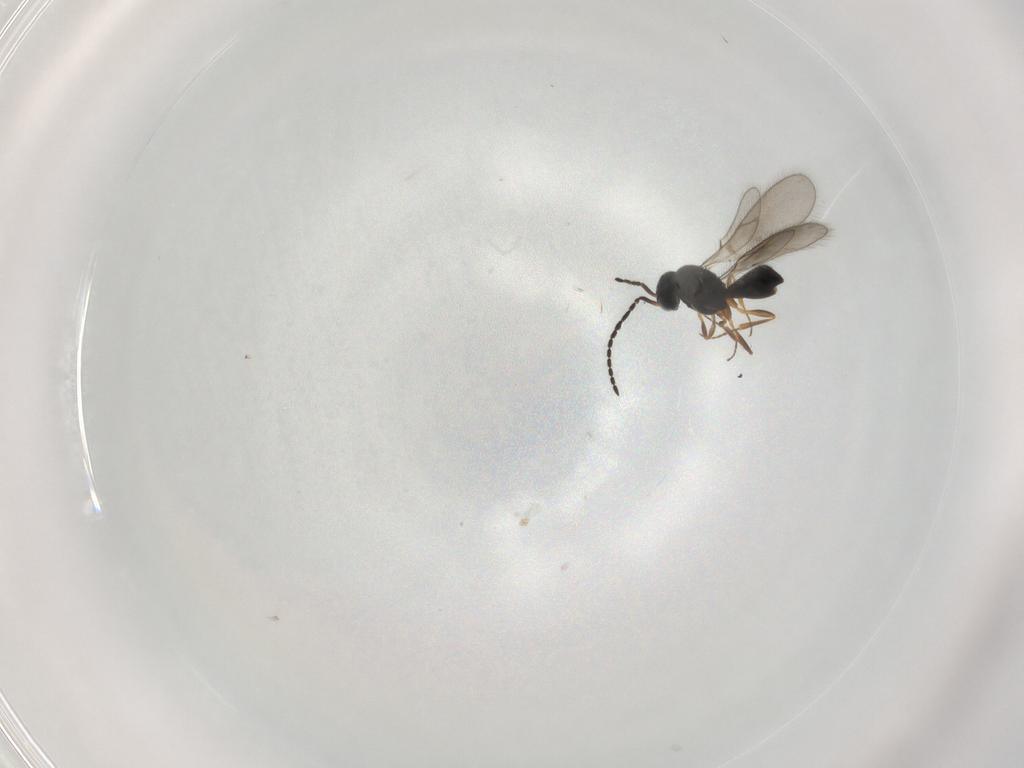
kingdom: Animalia
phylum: Arthropoda
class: Insecta
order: Hymenoptera
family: Scelionidae
